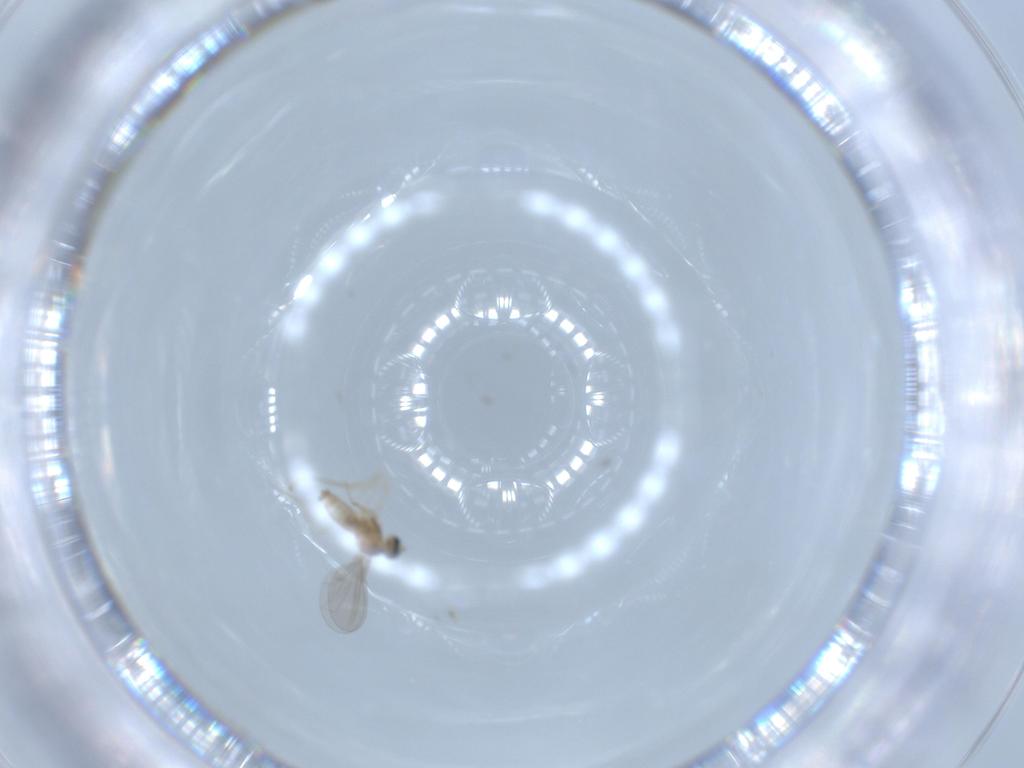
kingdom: Animalia
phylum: Arthropoda
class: Insecta
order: Diptera
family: Cecidomyiidae
